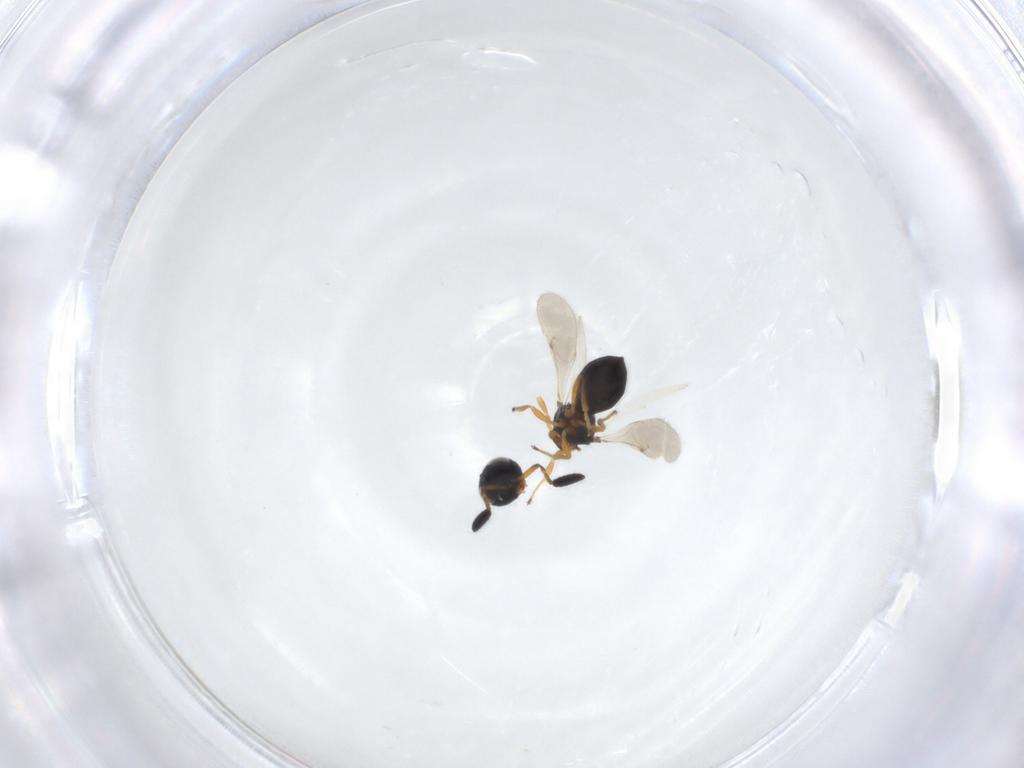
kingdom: Animalia
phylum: Arthropoda
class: Insecta
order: Hymenoptera
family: Scelionidae
